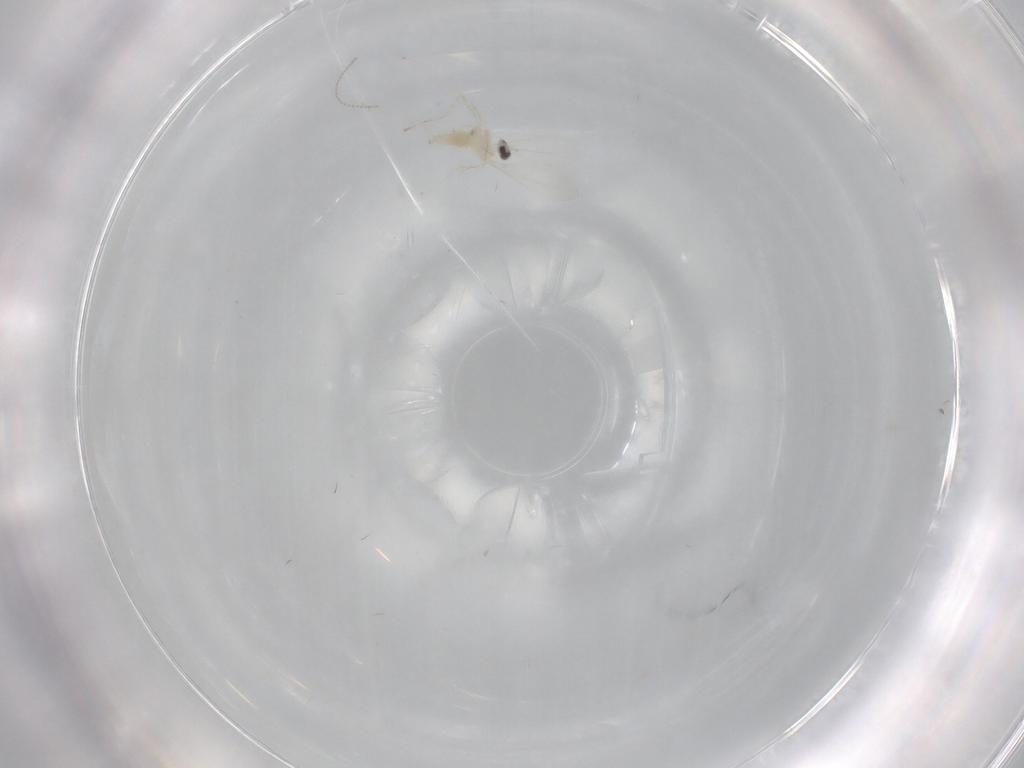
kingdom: Animalia
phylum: Arthropoda
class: Insecta
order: Diptera
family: Cecidomyiidae
